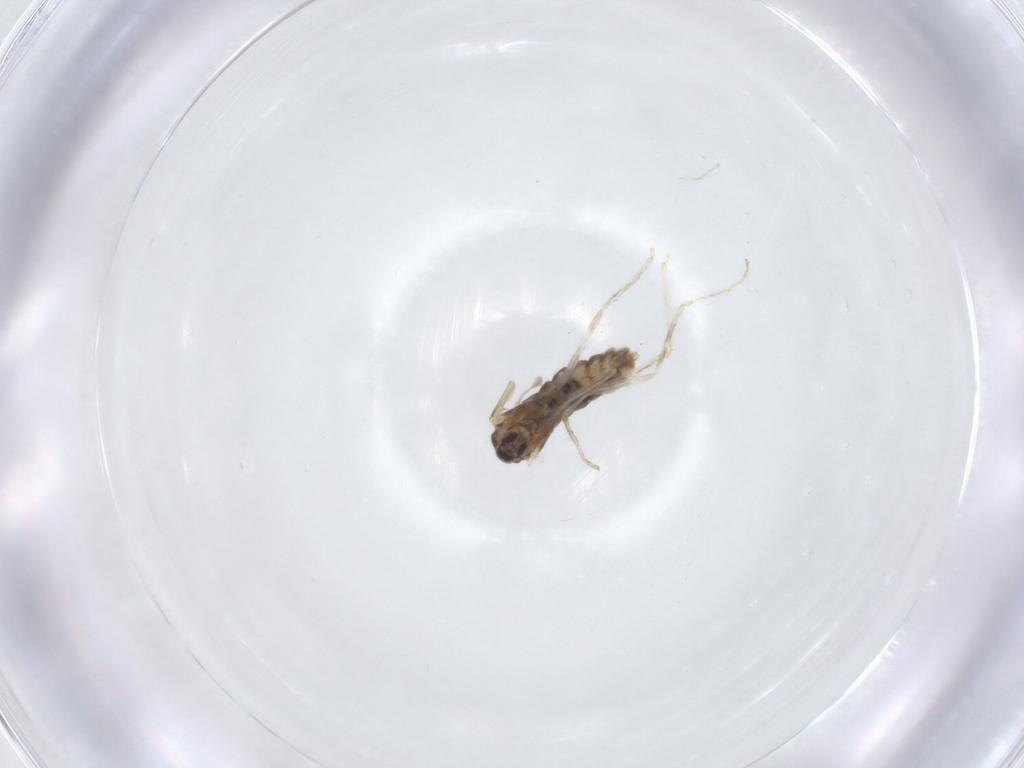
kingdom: Animalia
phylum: Arthropoda
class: Insecta
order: Diptera
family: Cecidomyiidae
